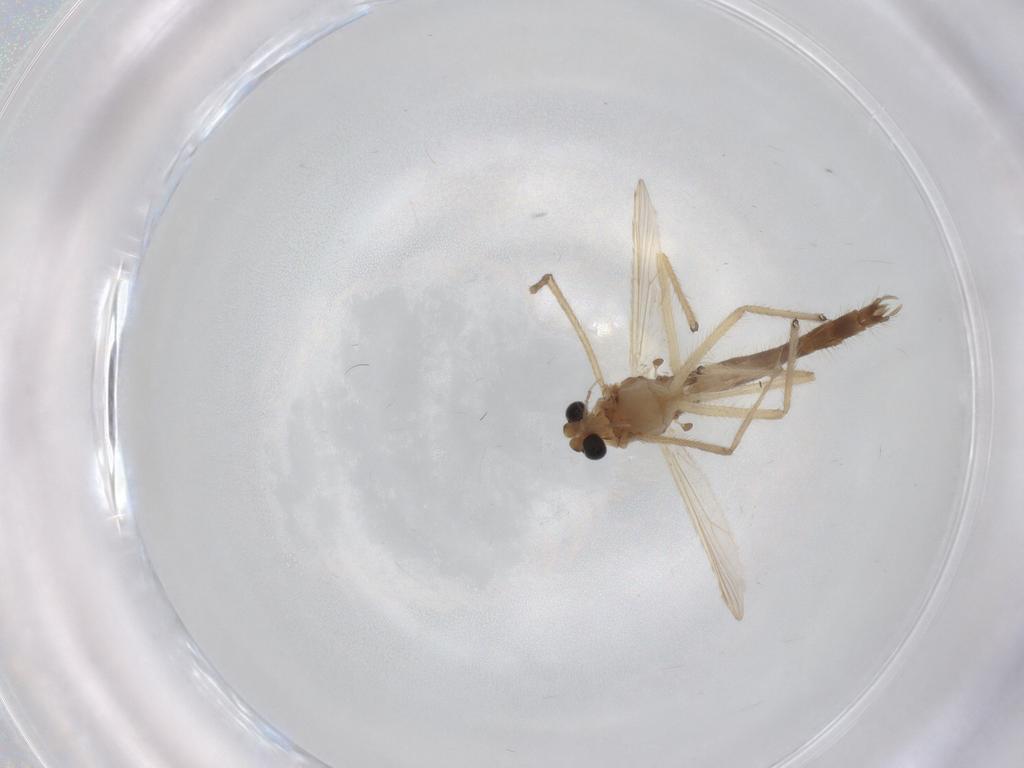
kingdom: Animalia
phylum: Arthropoda
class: Insecta
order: Diptera
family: Chironomidae
